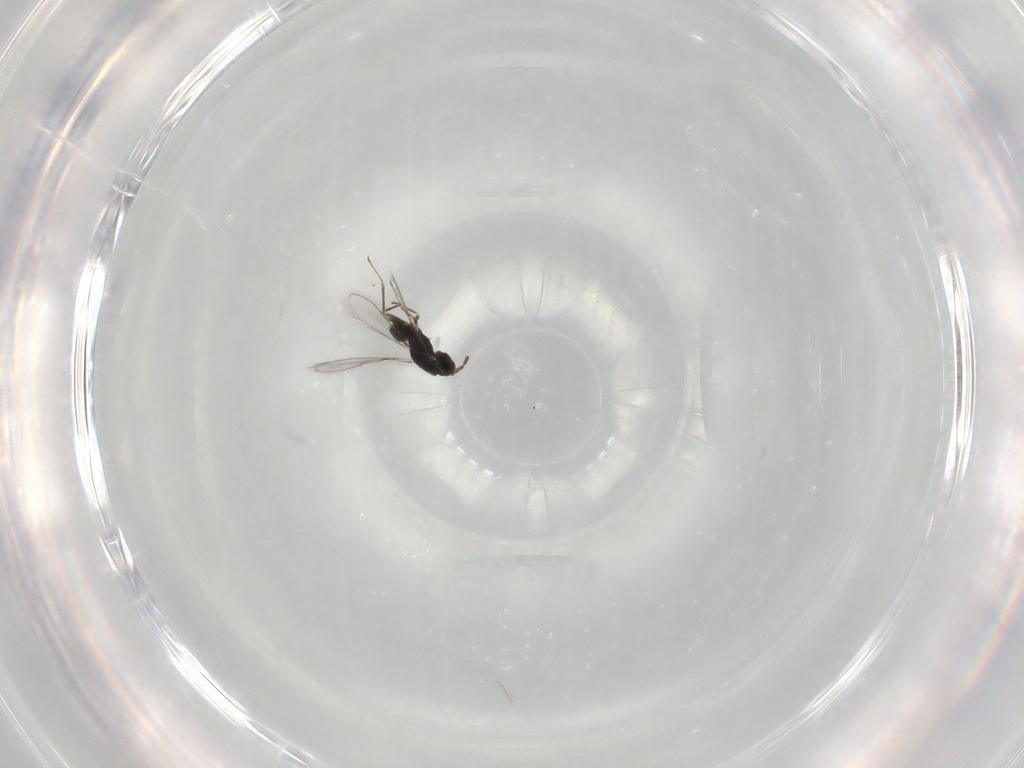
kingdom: Animalia
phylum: Arthropoda
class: Insecta
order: Hymenoptera
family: Mymaridae
